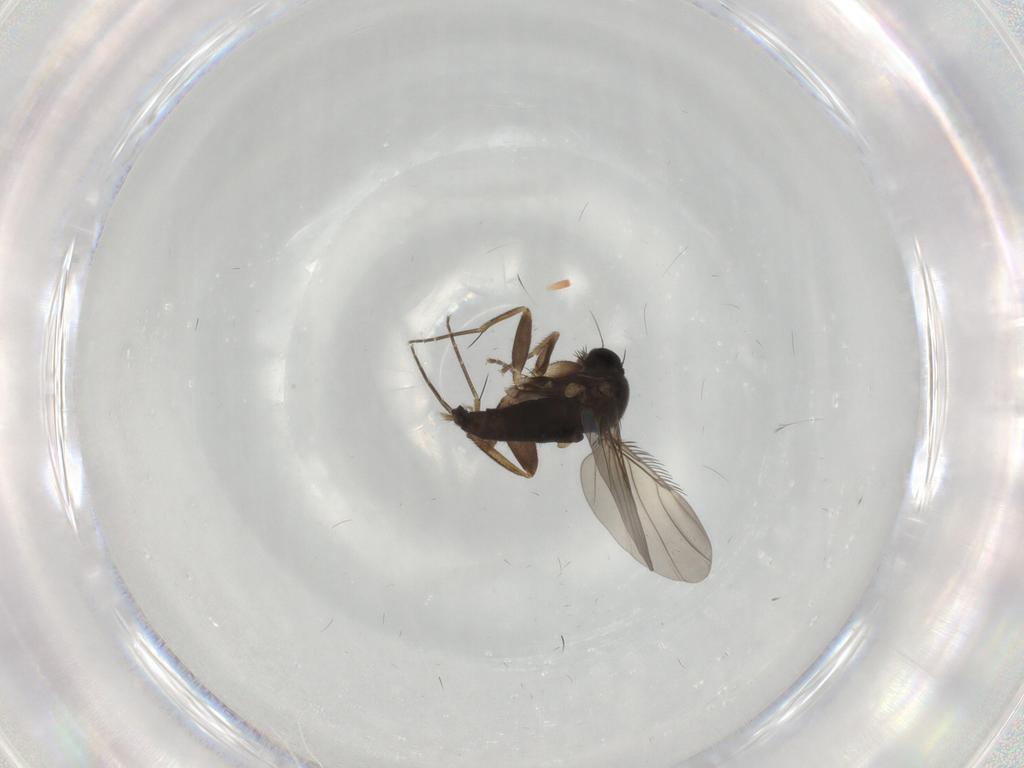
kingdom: Animalia
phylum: Arthropoda
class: Insecta
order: Diptera
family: Phoridae
